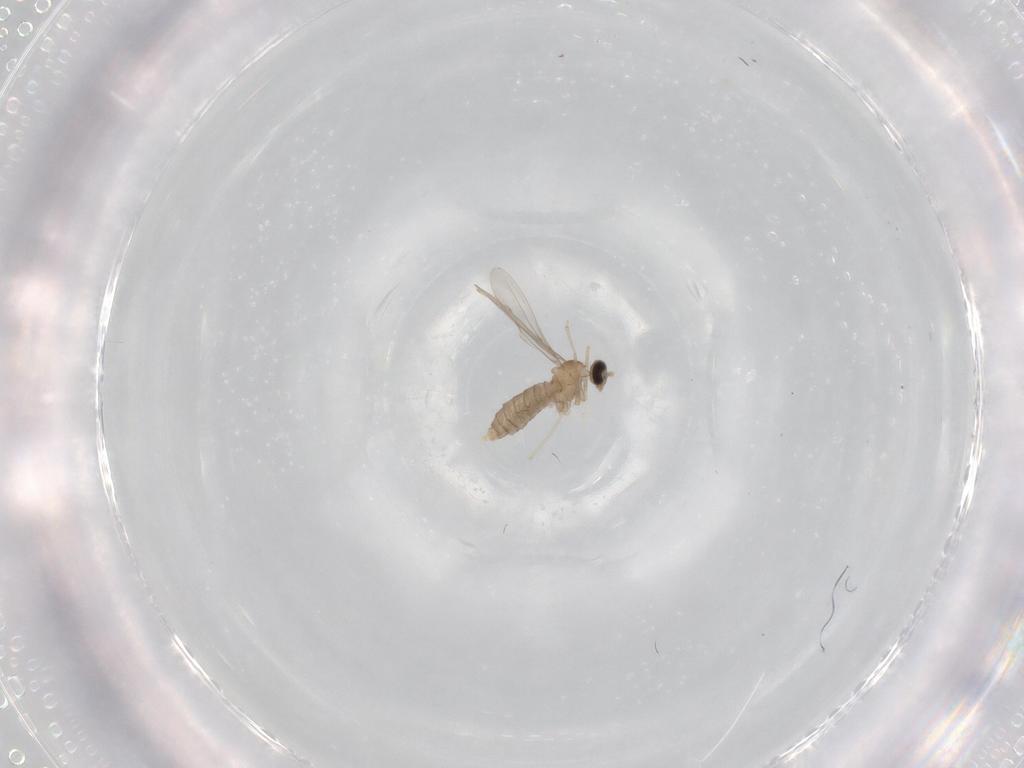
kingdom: Animalia
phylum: Arthropoda
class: Insecta
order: Diptera
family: Cecidomyiidae
